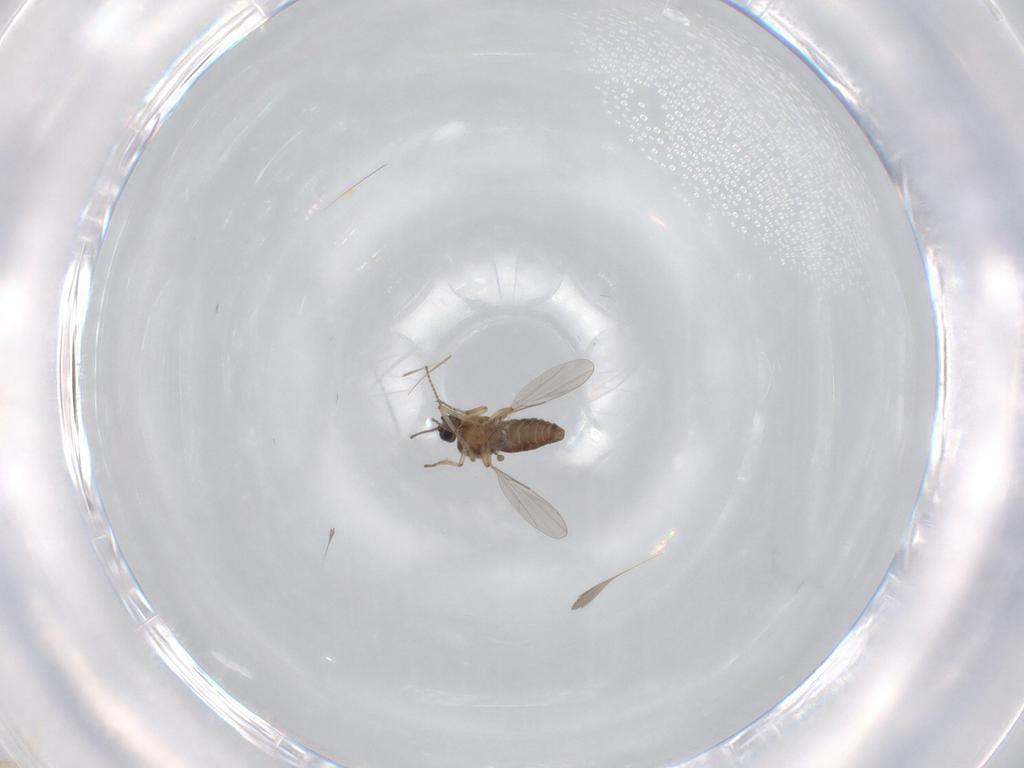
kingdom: Animalia
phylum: Arthropoda
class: Insecta
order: Diptera
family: Ceratopogonidae
